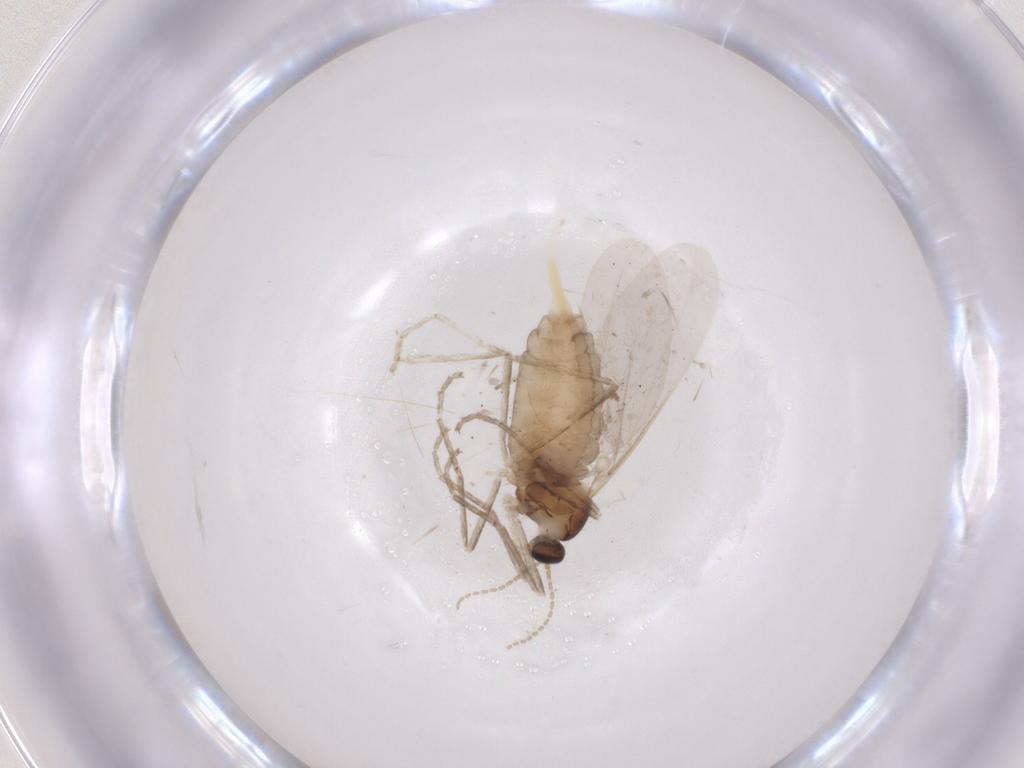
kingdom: Animalia
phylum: Arthropoda
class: Insecta
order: Diptera
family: Cecidomyiidae
